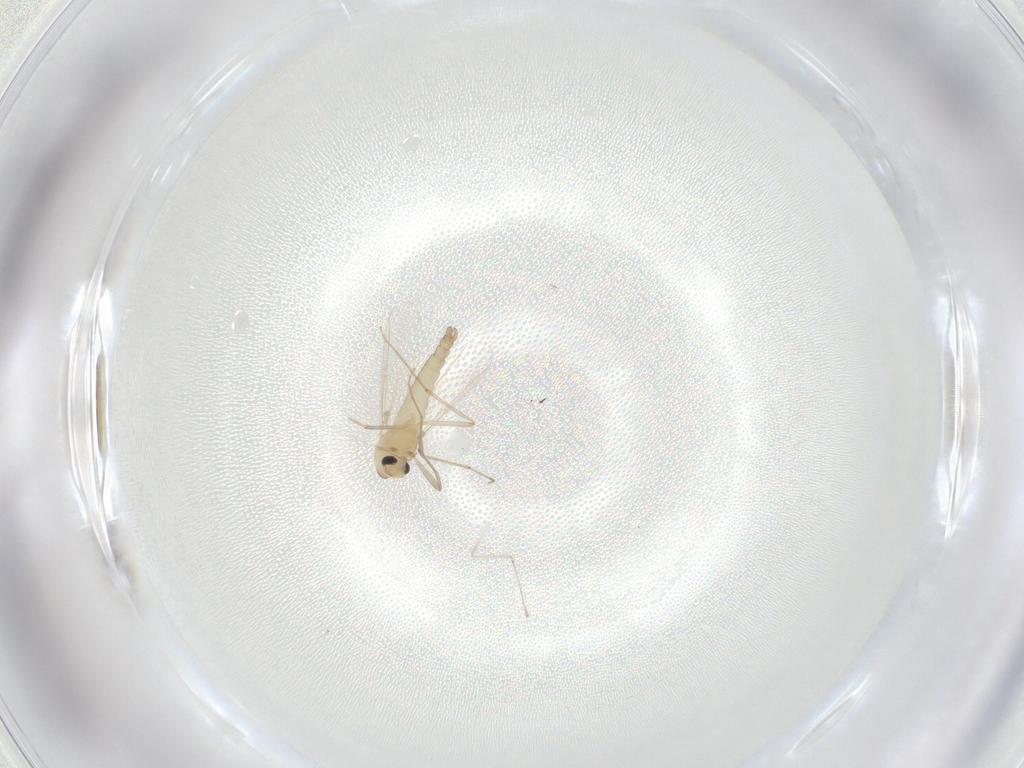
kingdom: Animalia
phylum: Arthropoda
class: Insecta
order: Diptera
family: Chironomidae
